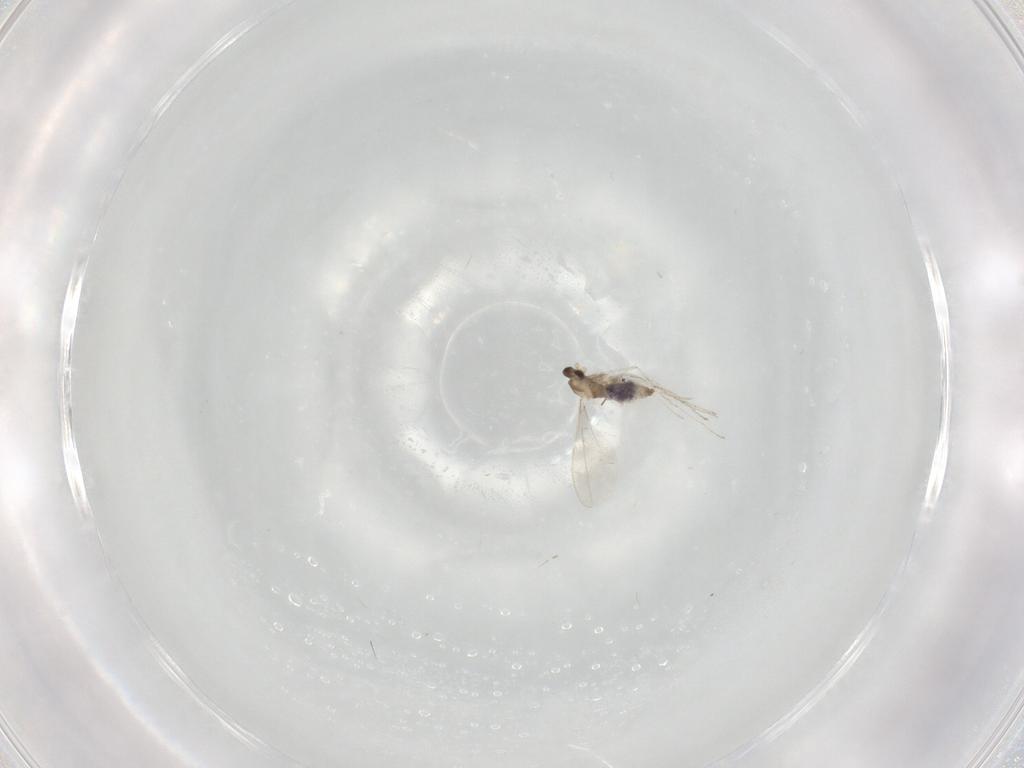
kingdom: Animalia
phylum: Arthropoda
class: Insecta
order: Diptera
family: Ceratopogonidae
